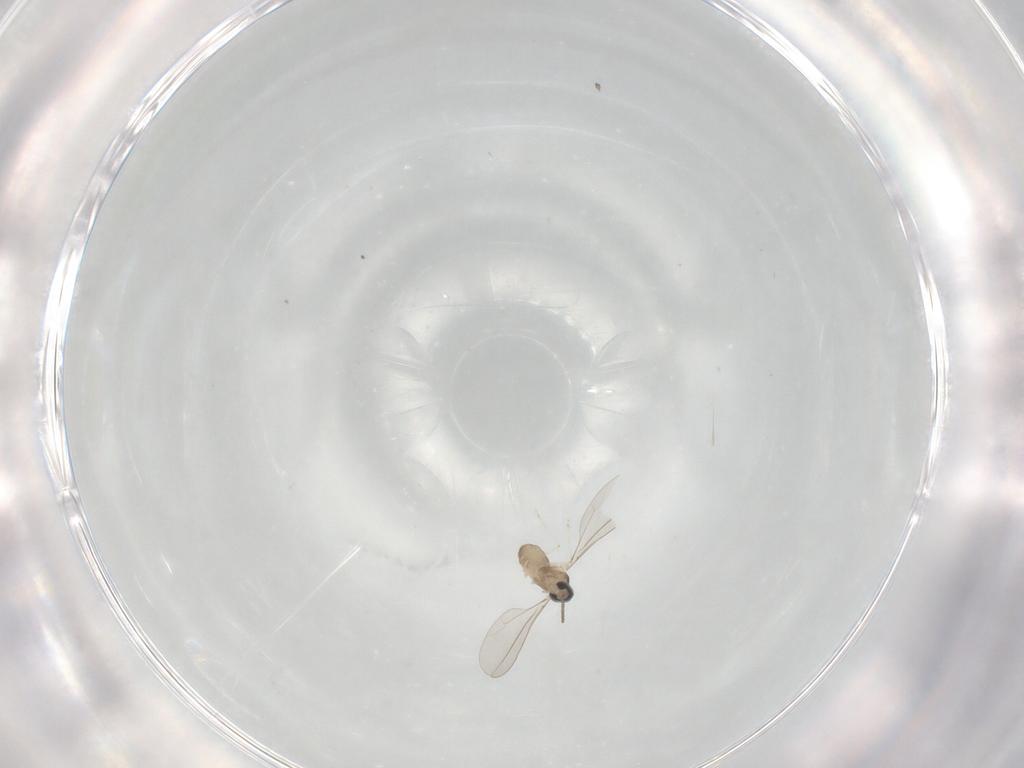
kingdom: Animalia
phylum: Arthropoda
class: Insecta
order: Diptera
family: Cecidomyiidae
